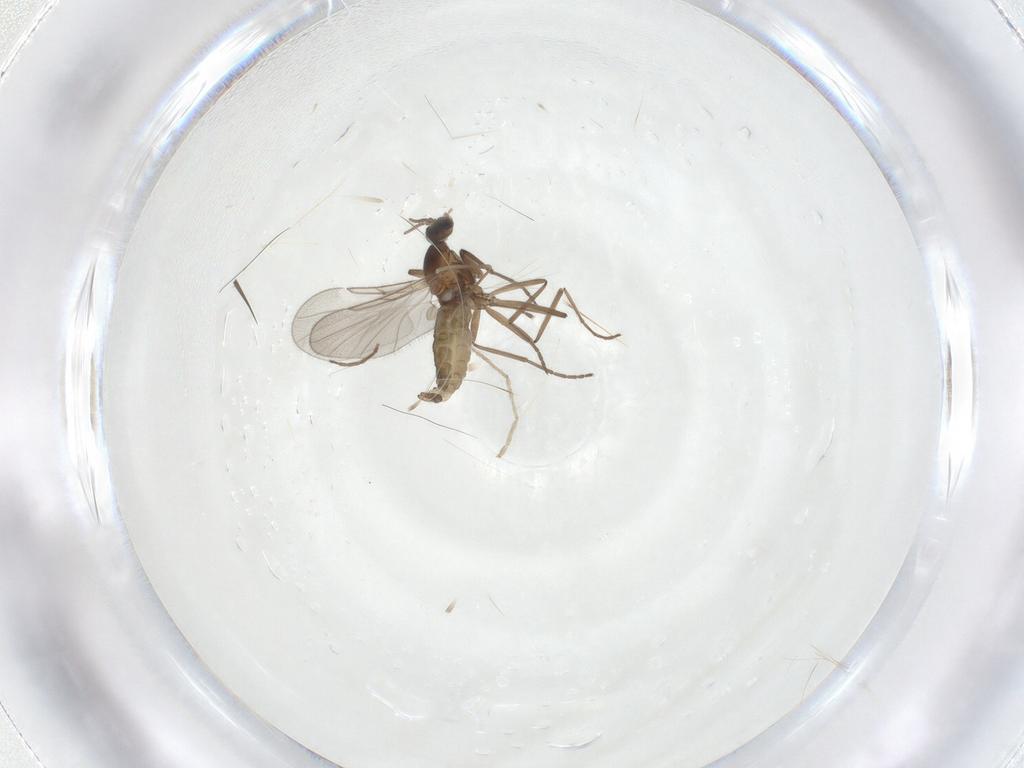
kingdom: Animalia
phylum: Arthropoda
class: Insecta
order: Diptera
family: Cecidomyiidae
